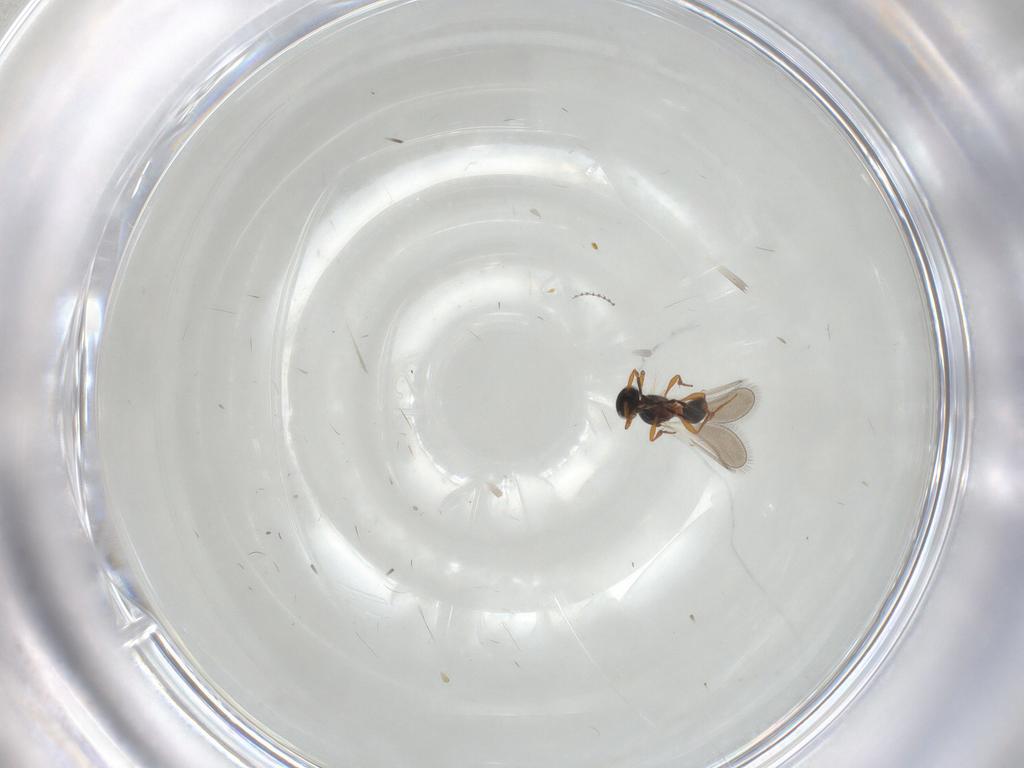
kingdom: Animalia
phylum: Arthropoda
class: Insecta
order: Hymenoptera
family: Platygastridae
